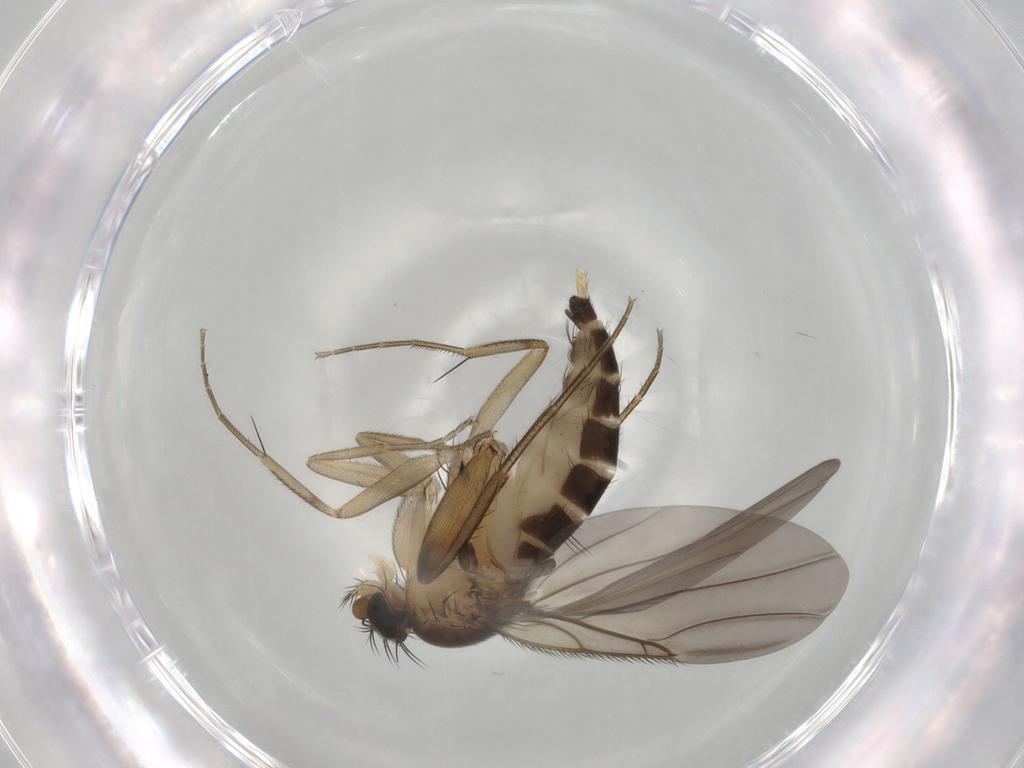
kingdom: Animalia
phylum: Arthropoda
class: Insecta
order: Diptera
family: Phoridae
